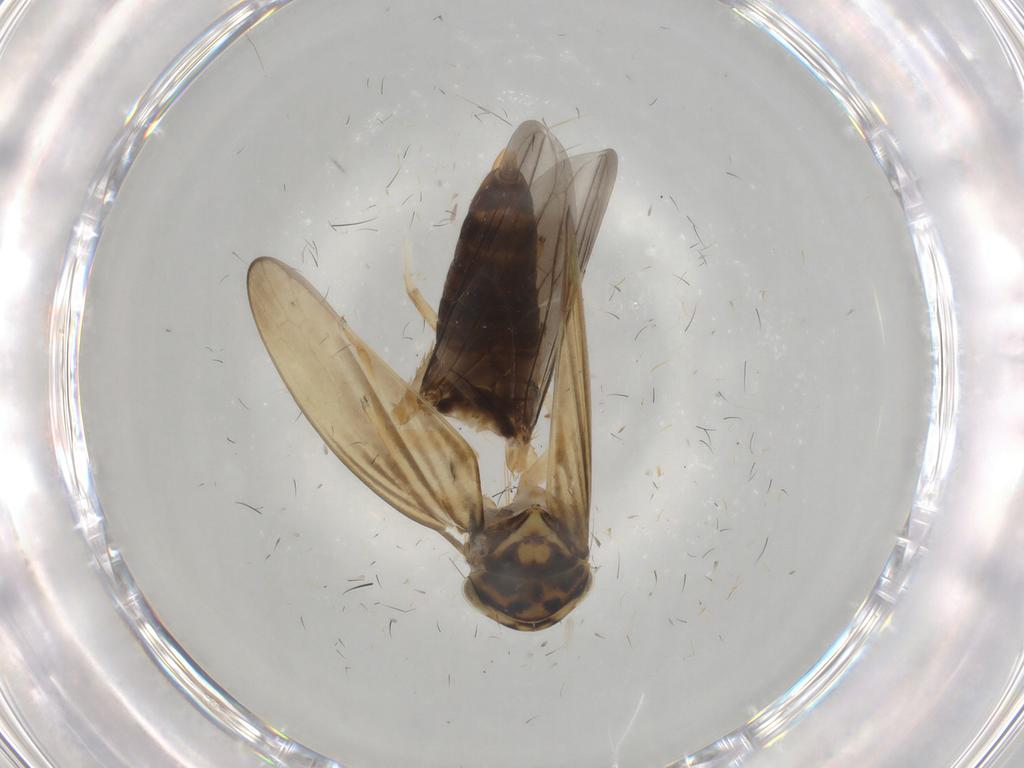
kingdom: Animalia
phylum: Arthropoda
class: Insecta
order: Hemiptera
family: Cicadellidae
